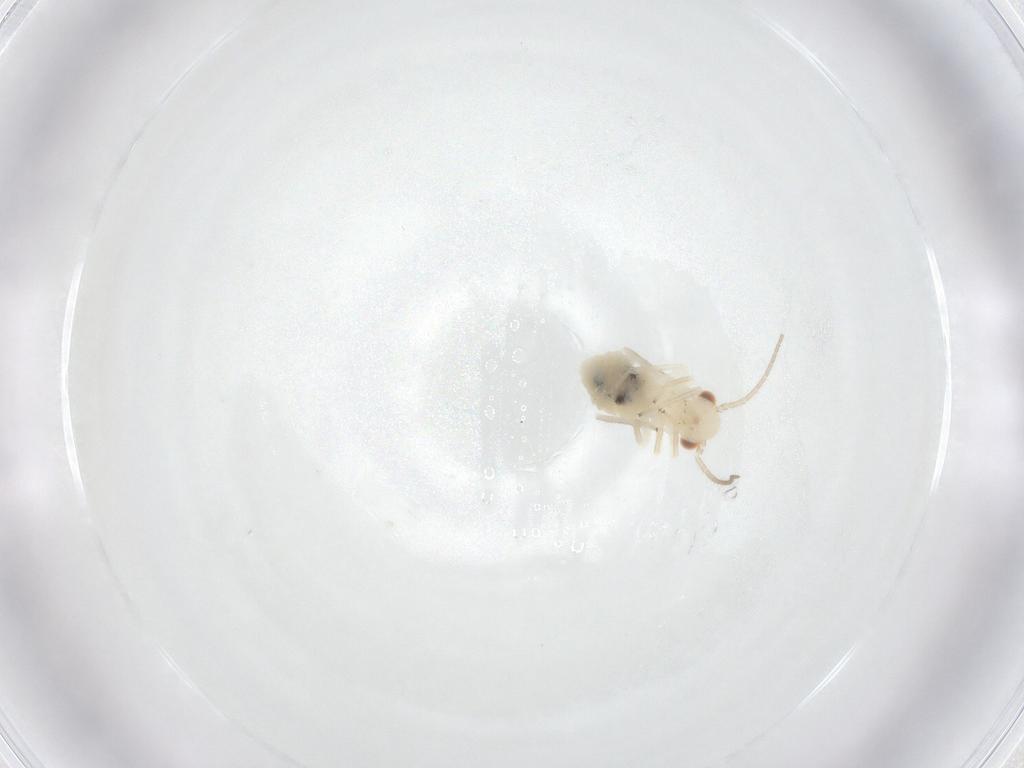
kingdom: Animalia
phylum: Arthropoda
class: Insecta
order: Psocodea
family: Caeciliusidae
